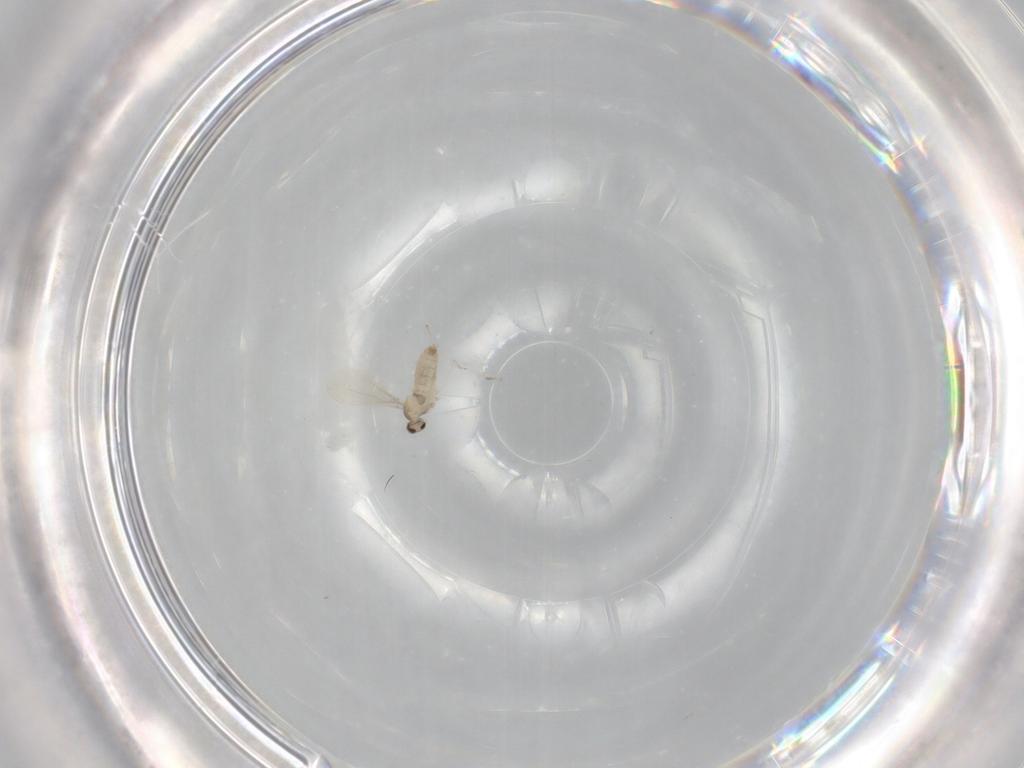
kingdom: Animalia
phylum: Arthropoda
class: Insecta
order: Diptera
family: Cecidomyiidae
